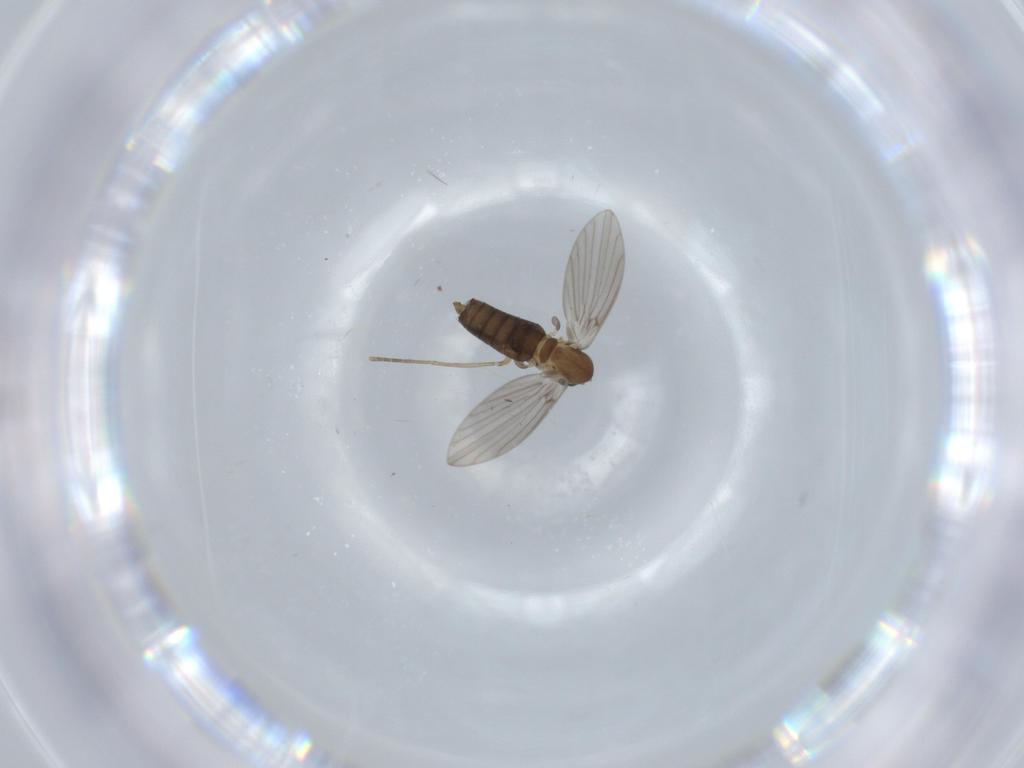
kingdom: Animalia
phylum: Arthropoda
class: Insecta
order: Diptera
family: Psychodidae
